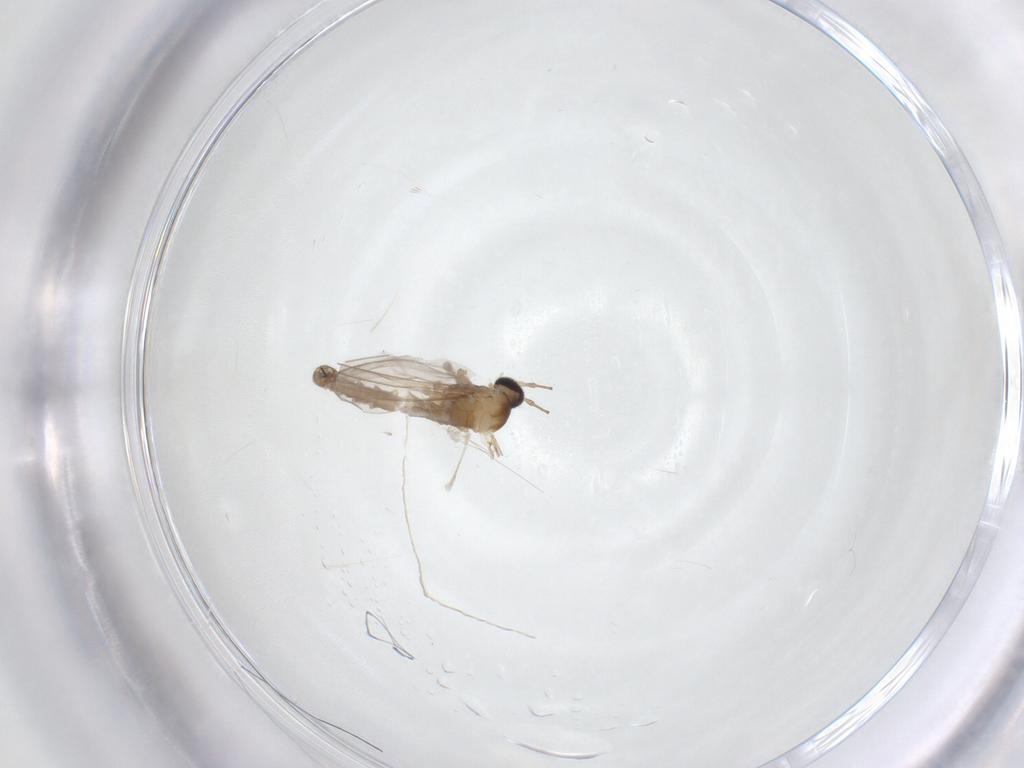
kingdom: Animalia
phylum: Arthropoda
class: Insecta
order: Diptera
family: Cecidomyiidae
